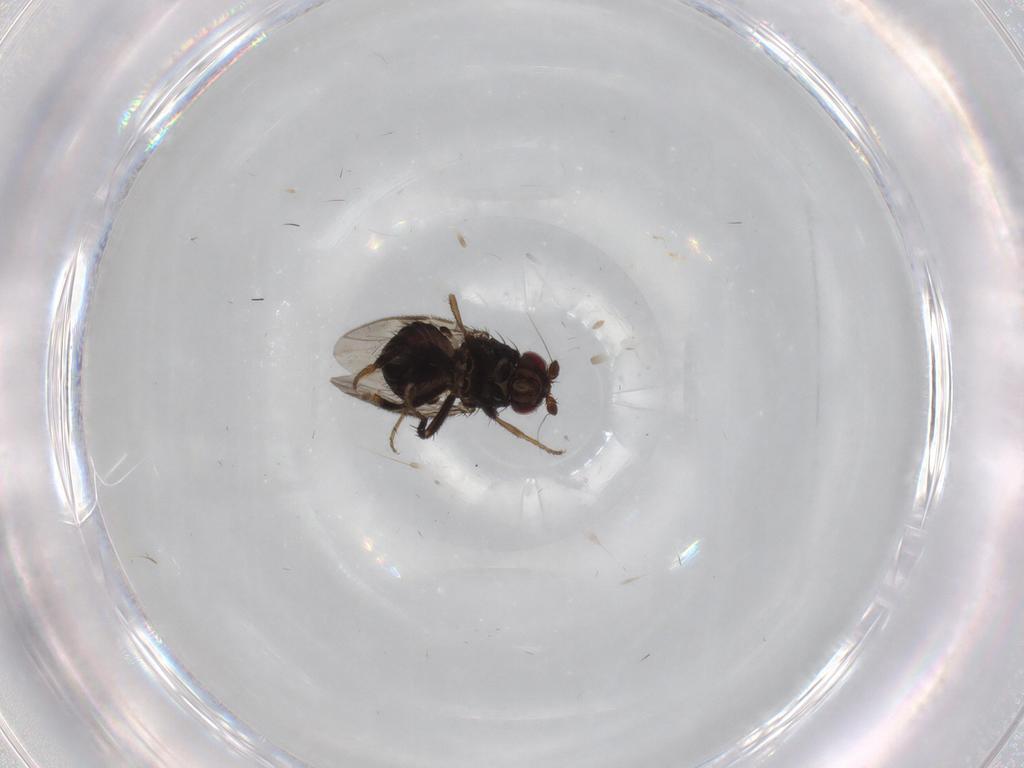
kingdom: Animalia
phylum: Arthropoda
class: Insecta
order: Diptera
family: Sphaeroceridae
